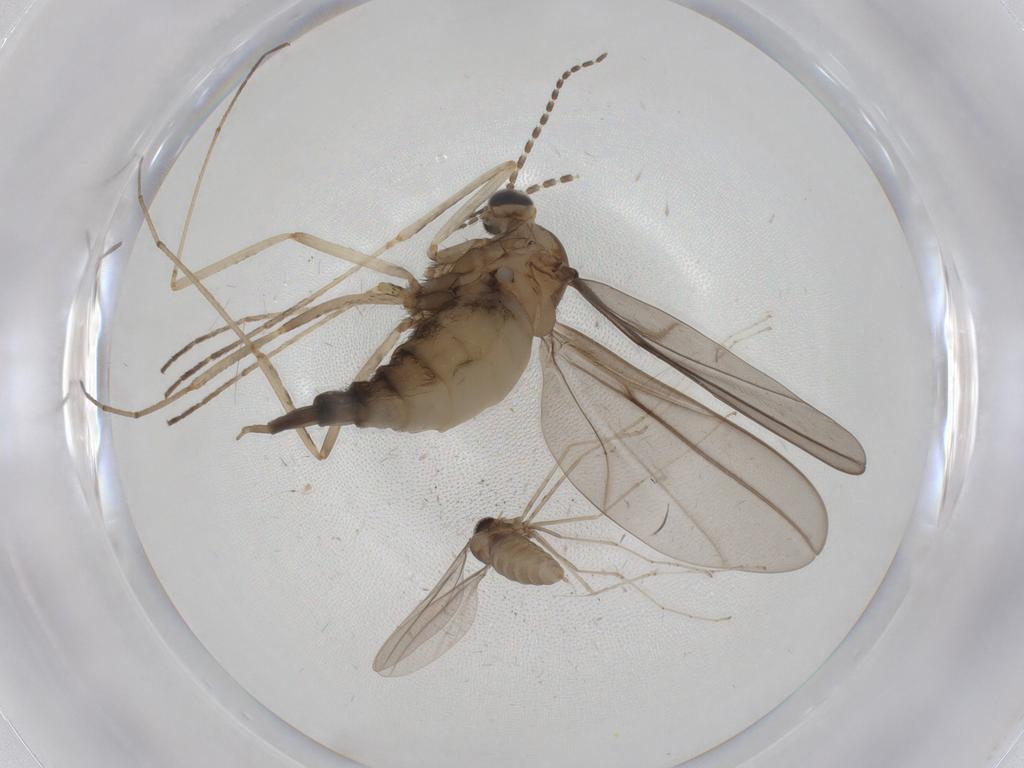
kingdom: Animalia
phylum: Arthropoda
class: Insecta
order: Diptera
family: Cecidomyiidae
